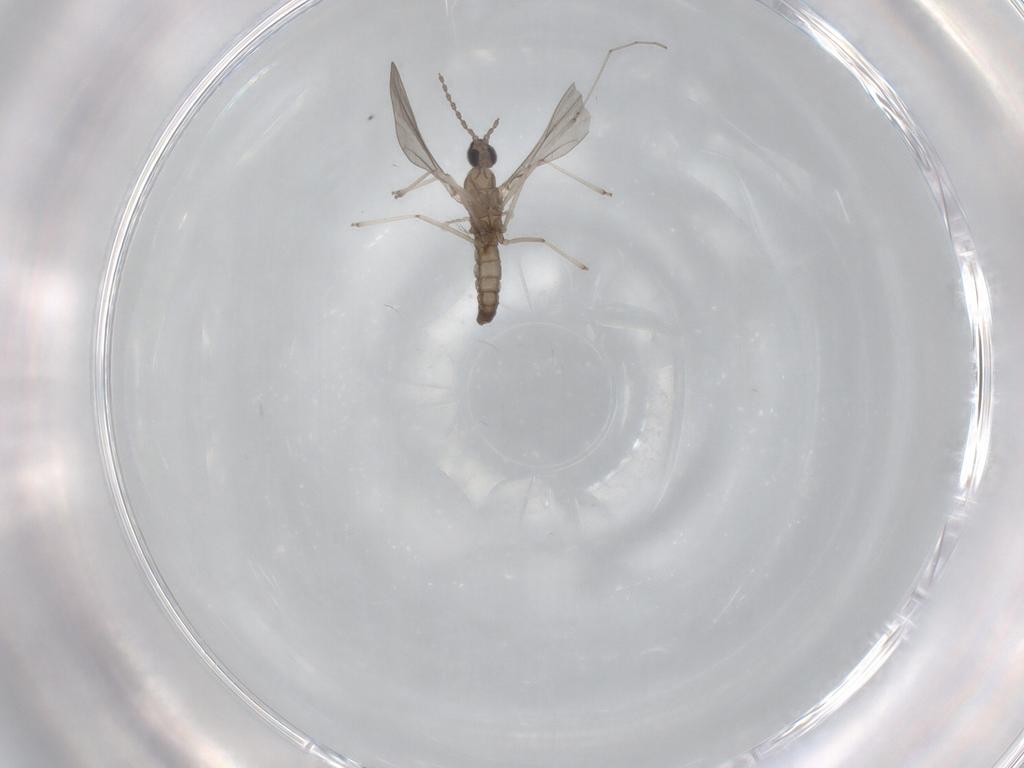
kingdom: Animalia
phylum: Arthropoda
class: Insecta
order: Diptera
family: Cecidomyiidae
